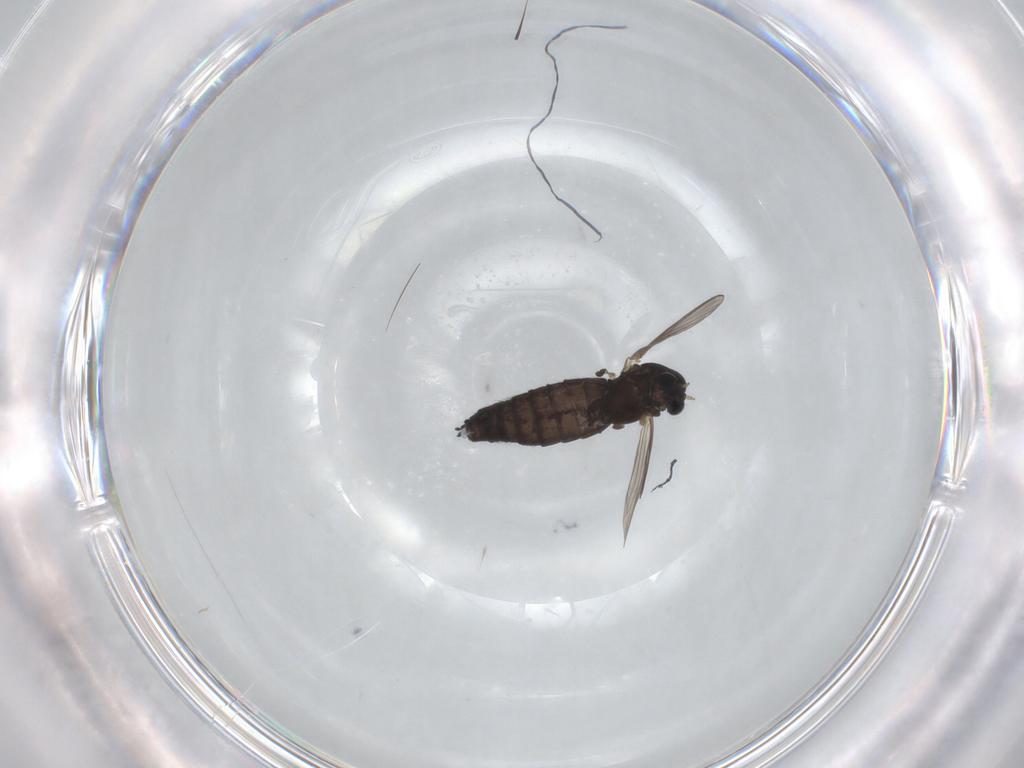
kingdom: Animalia
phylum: Arthropoda
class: Insecta
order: Diptera
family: Chironomidae
